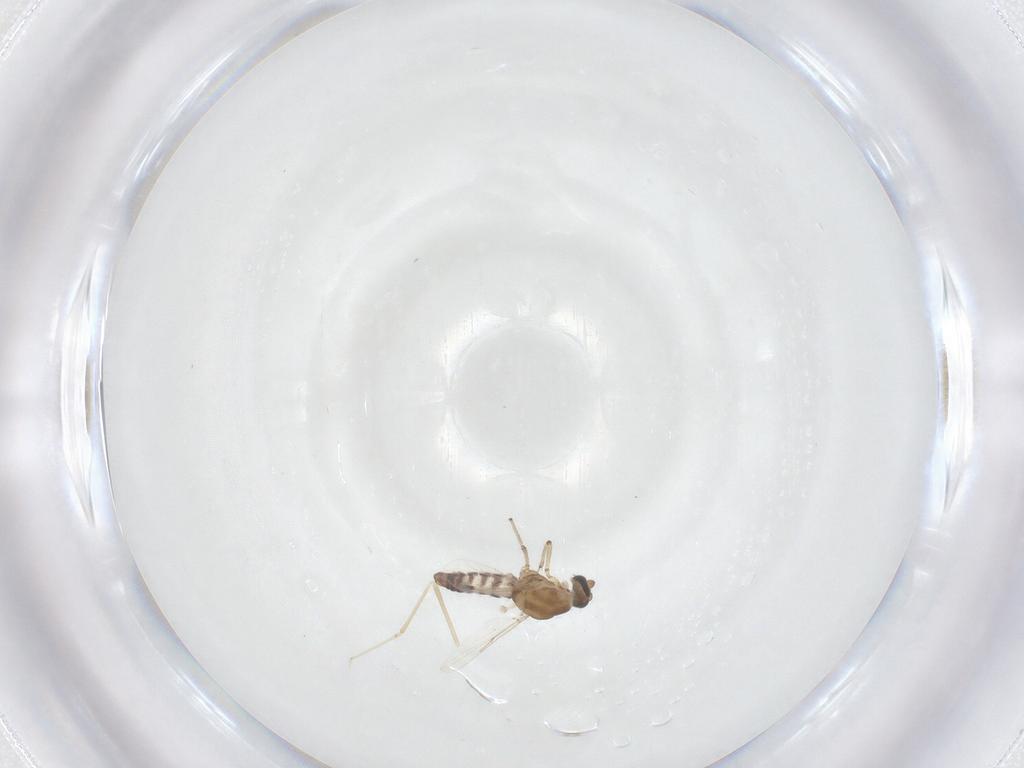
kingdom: Animalia
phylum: Arthropoda
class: Insecta
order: Diptera
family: Ceratopogonidae
